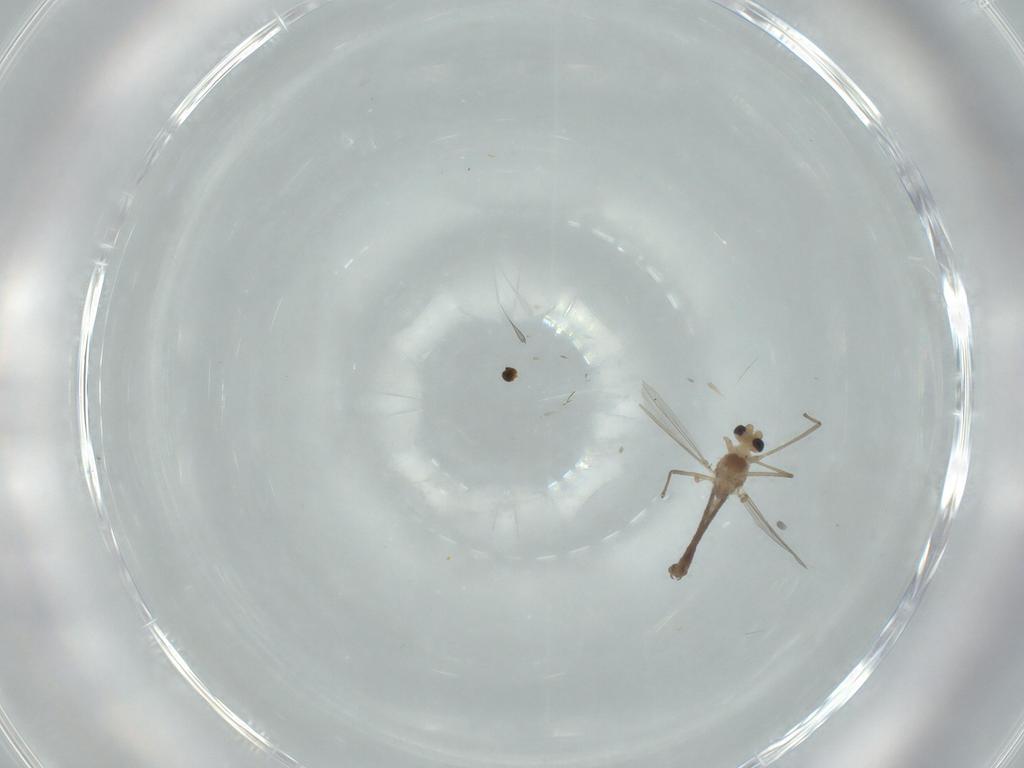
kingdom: Animalia
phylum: Arthropoda
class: Insecta
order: Diptera
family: Chironomidae
